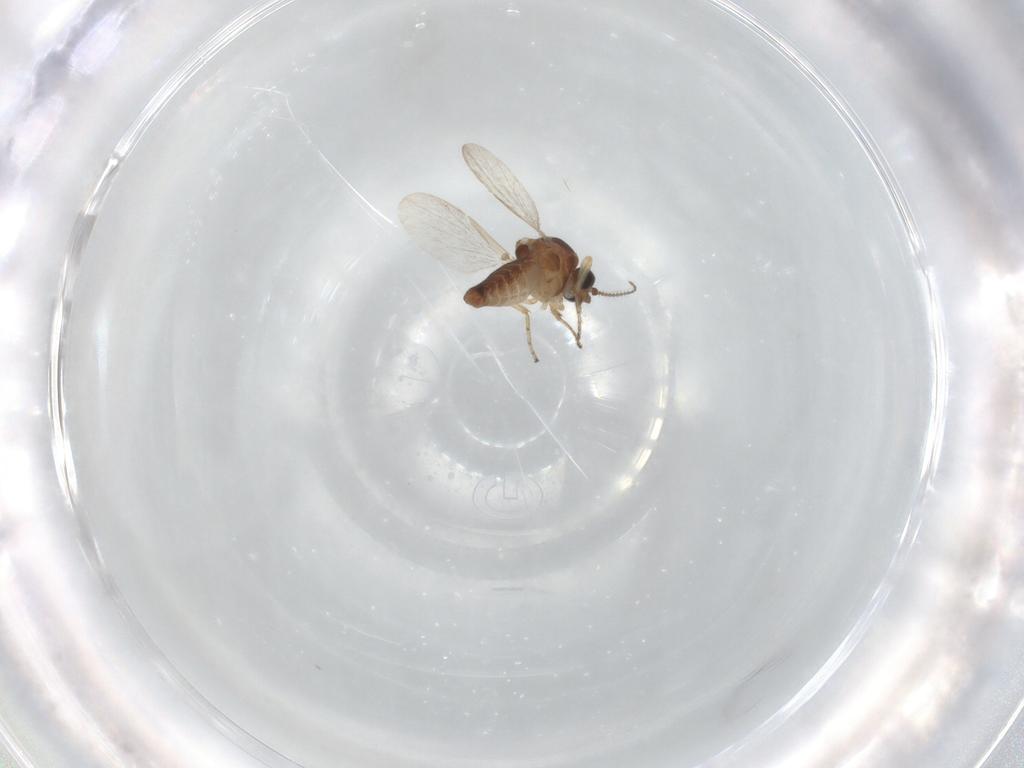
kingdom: Animalia
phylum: Arthropoda
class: Insecta
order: Diptera
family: Ceratopogonidae
